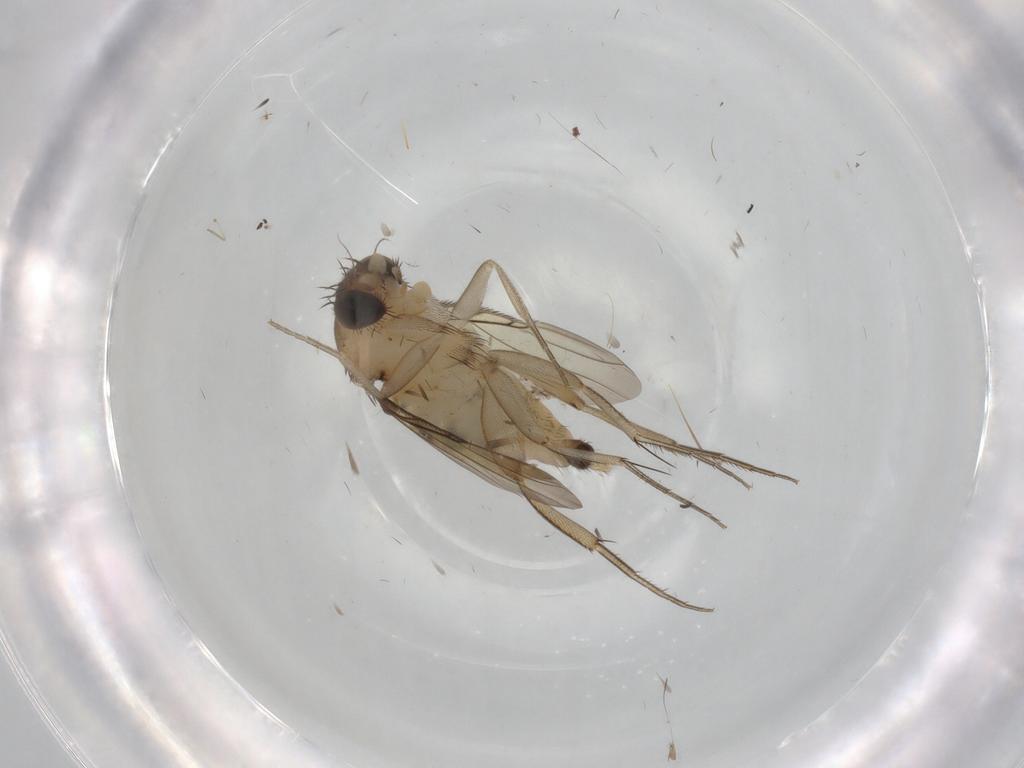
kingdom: Animalia
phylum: Arthropoda
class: Insecta
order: Diptera
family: Phoridae
